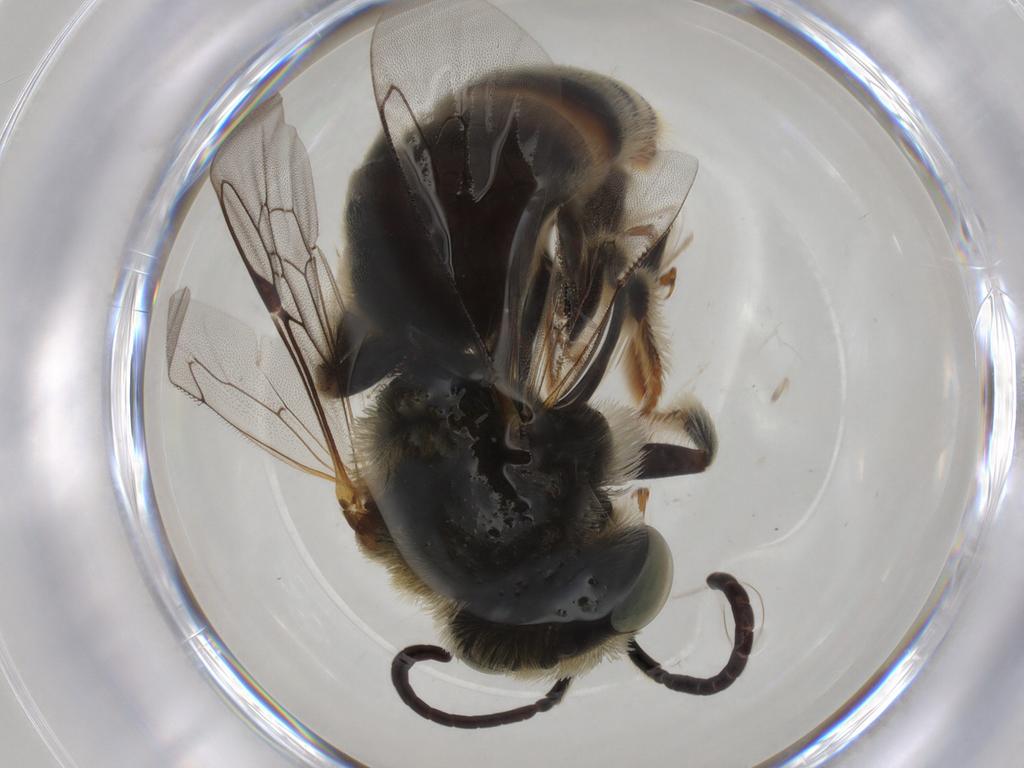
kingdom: Animalia
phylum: Arthropoda
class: Insecta
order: Hymenoptera
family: Apidae
